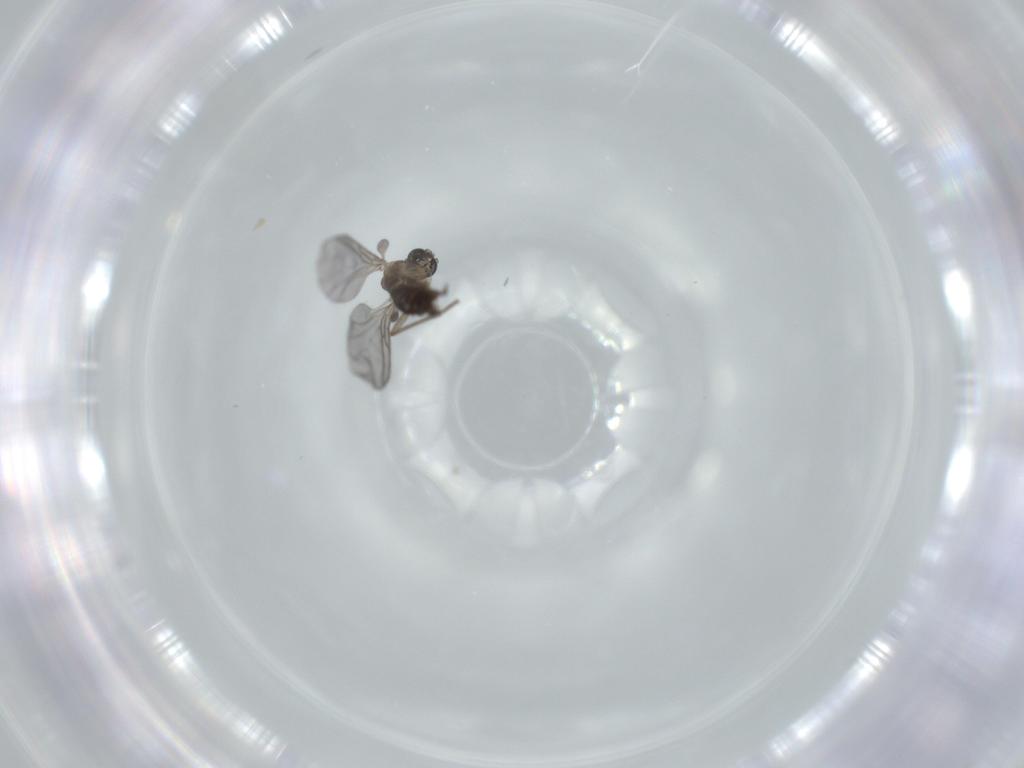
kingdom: Animalia
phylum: Arthropoda
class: Insecta
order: Diptera
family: Sciaridae
